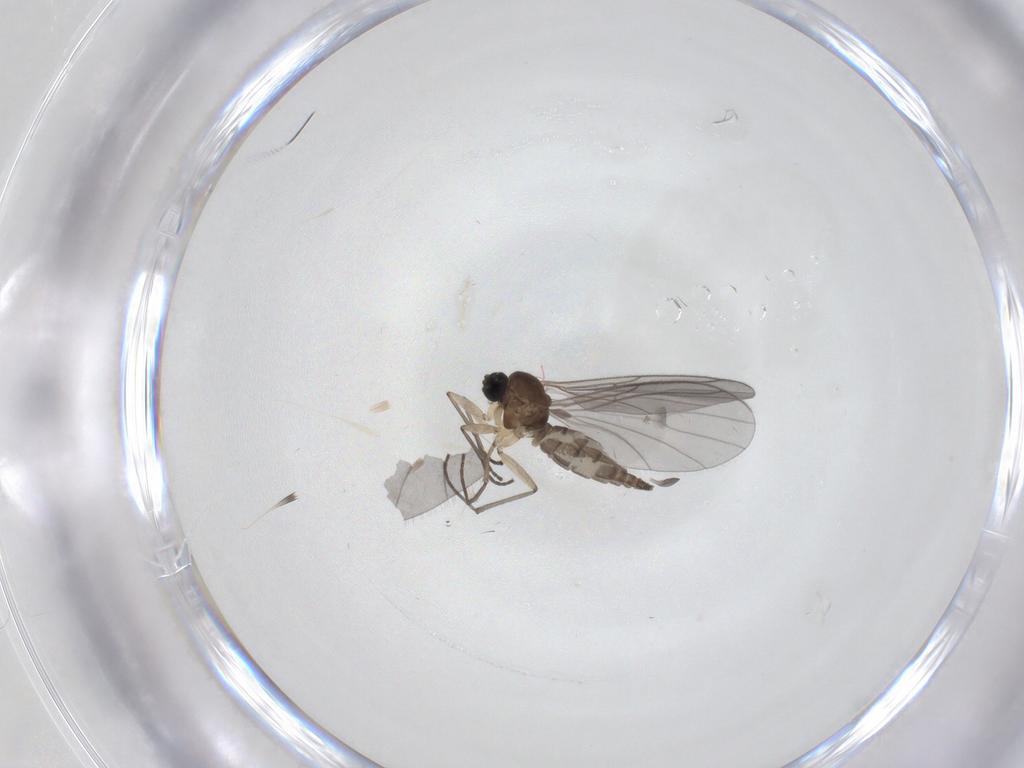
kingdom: Animalia
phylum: Arthropoda
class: Insecta
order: Diptera
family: Sciaridae
